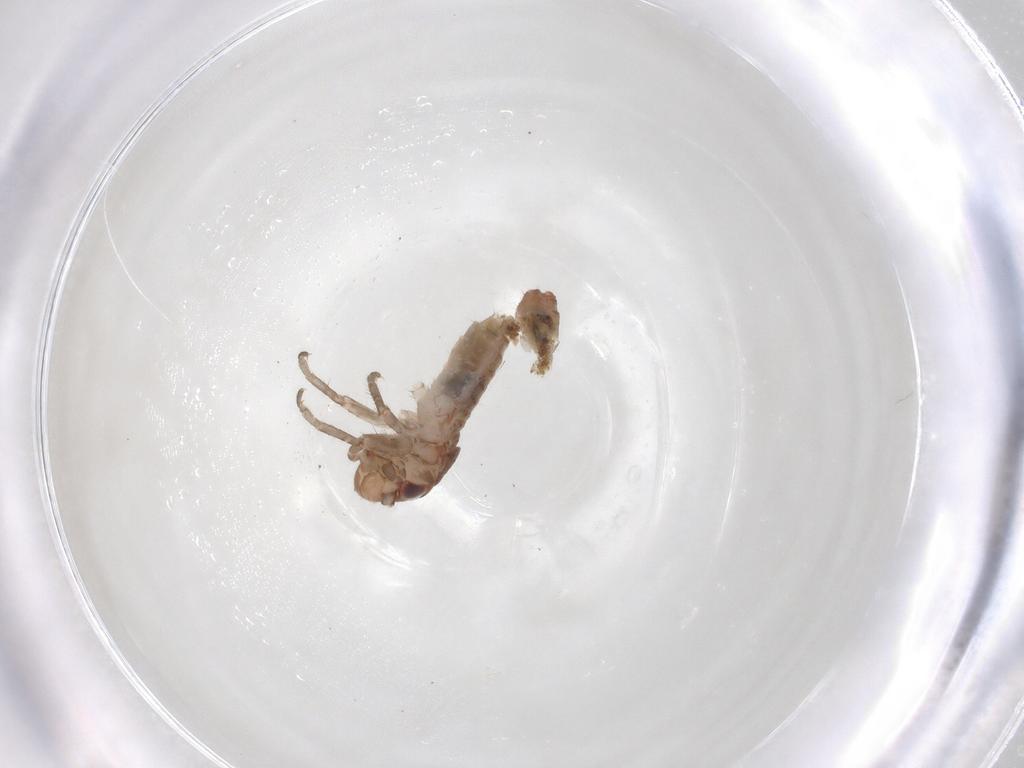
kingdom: Animalia
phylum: Arthropoda
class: Insecta
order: Orthoptera
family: Mogoplistidae
